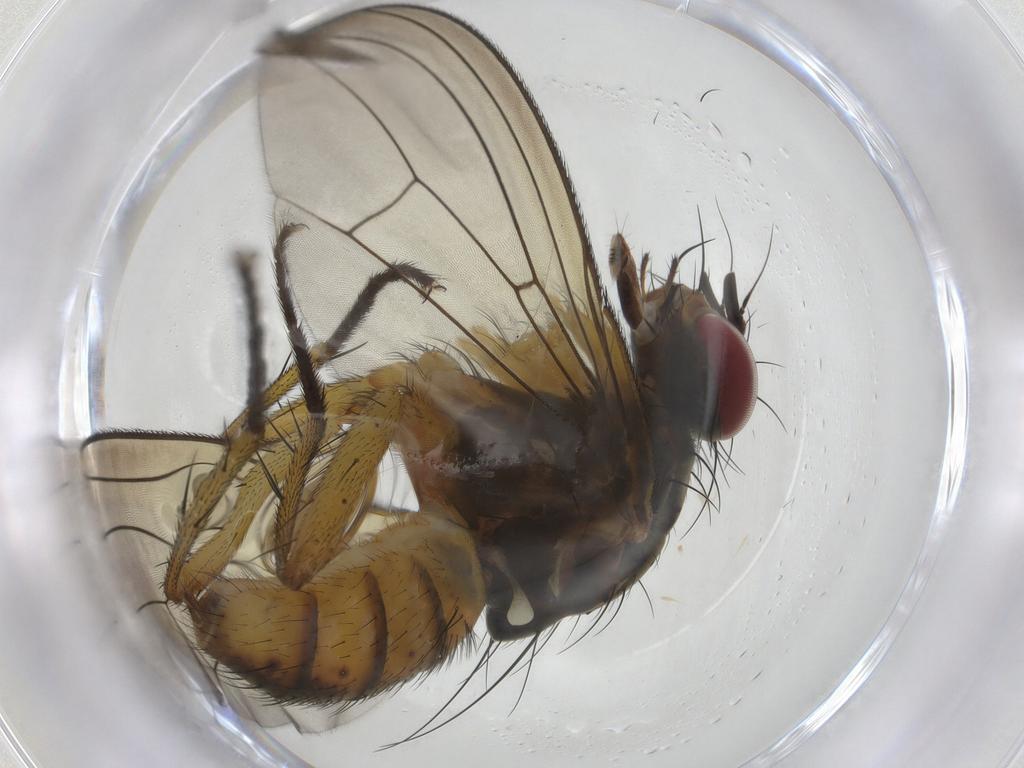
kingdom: Animalia
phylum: Arthropoda
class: Insecta
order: Diptera
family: Muscidae
